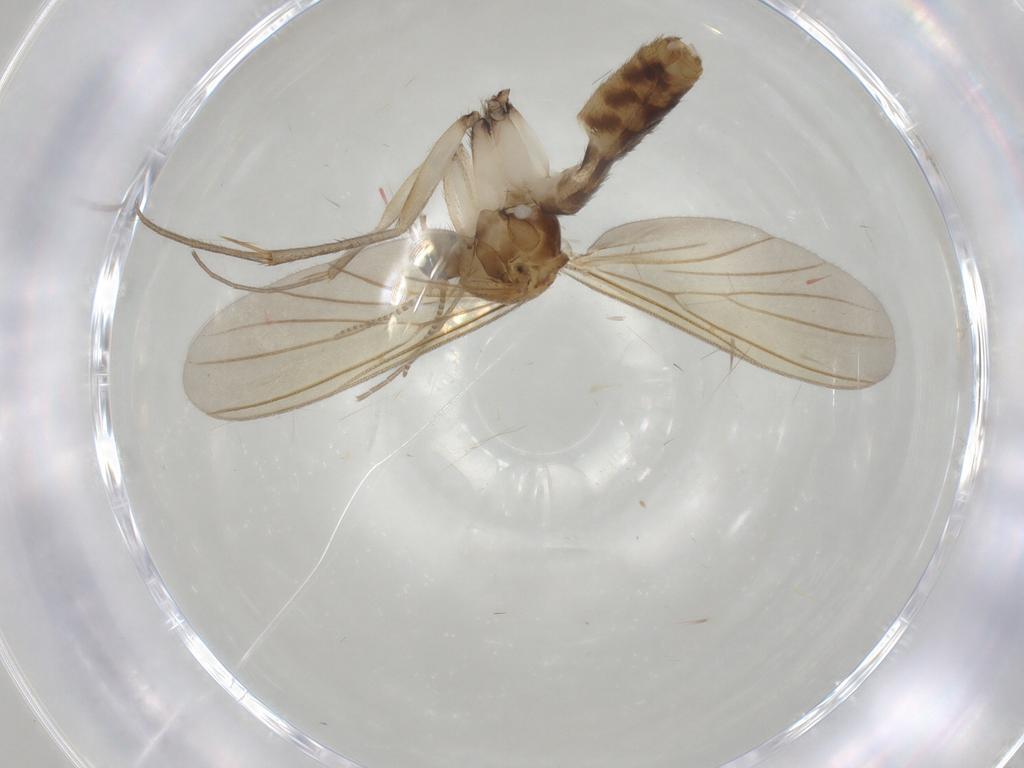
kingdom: Animalia
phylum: Arthropoda
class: Insecta
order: Diptera
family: Mycetophilidae
